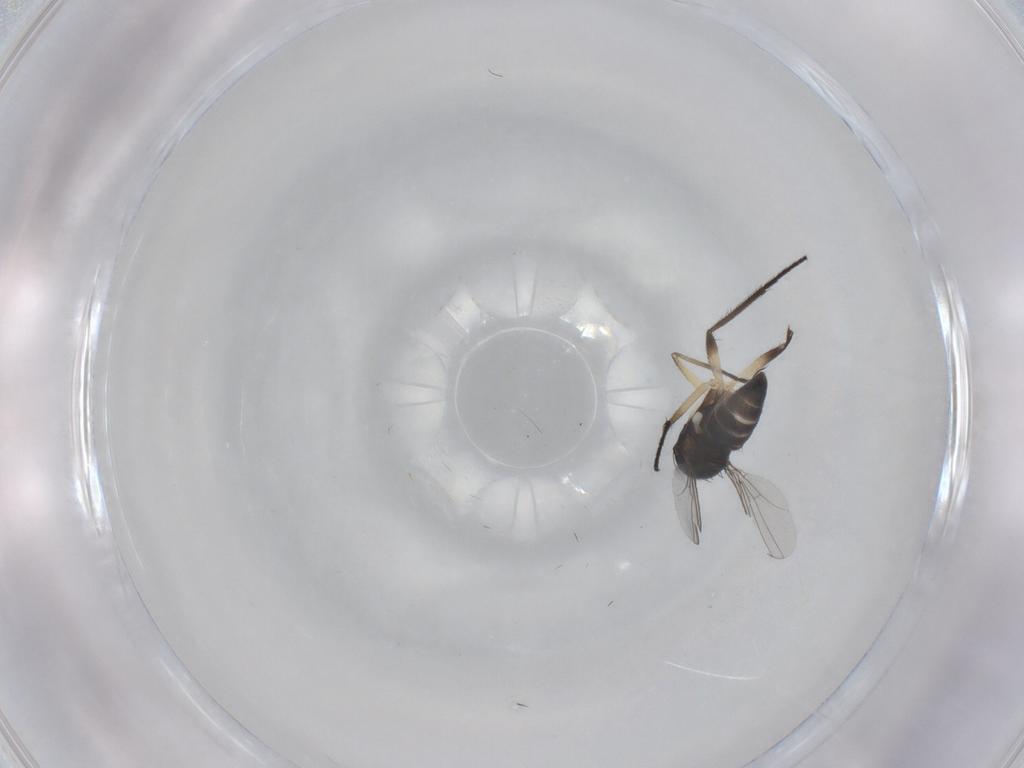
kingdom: Animalia
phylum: Arthropoda
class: Insecta
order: Diptera
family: Dolichopodidae
